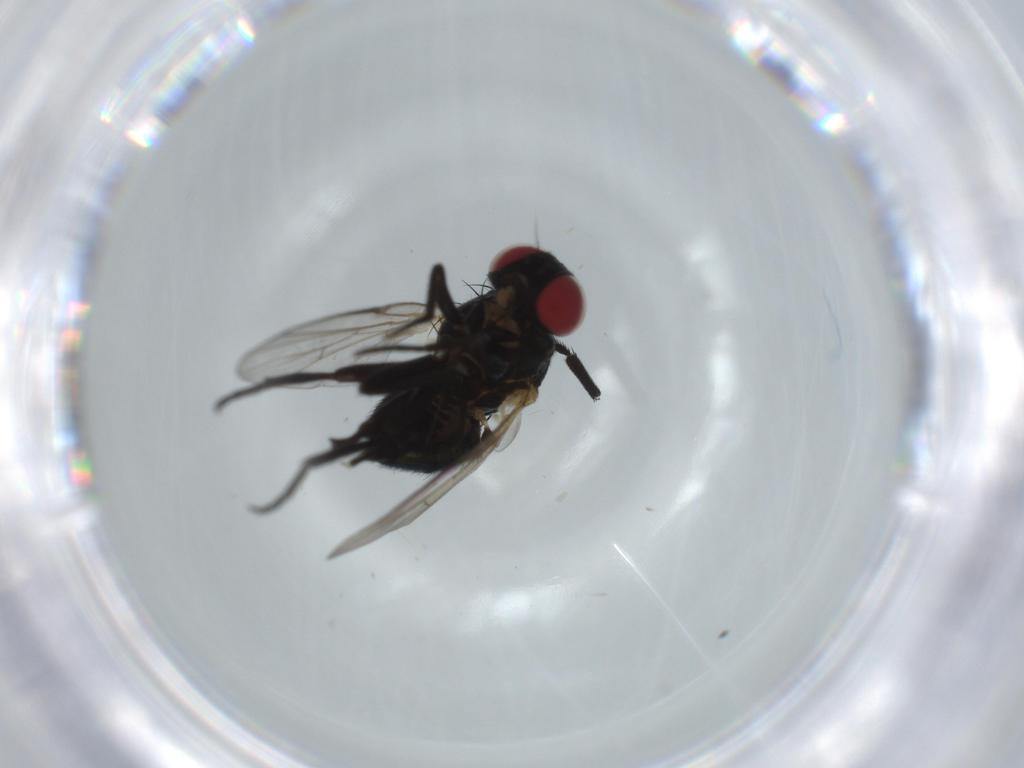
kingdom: Animalia
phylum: Arthropoda
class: Insecta
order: Diptera
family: Agromyzidae
